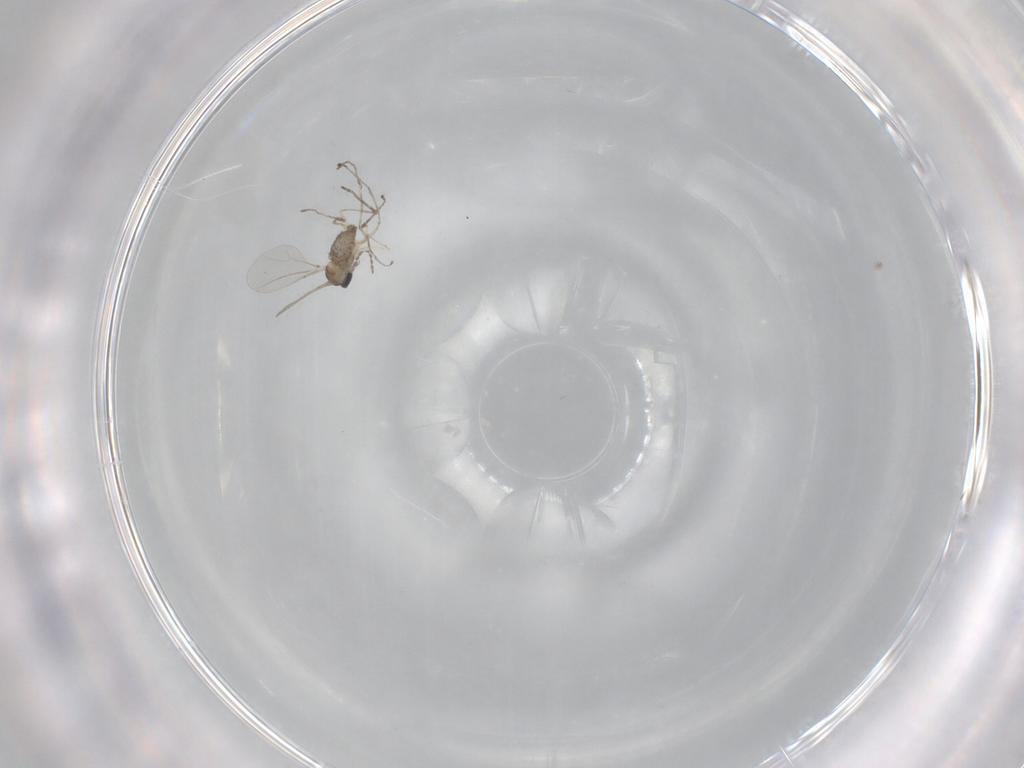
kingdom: Animalia
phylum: Arthropoda
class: Insecta
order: Diptera
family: Cecidomyiidae
